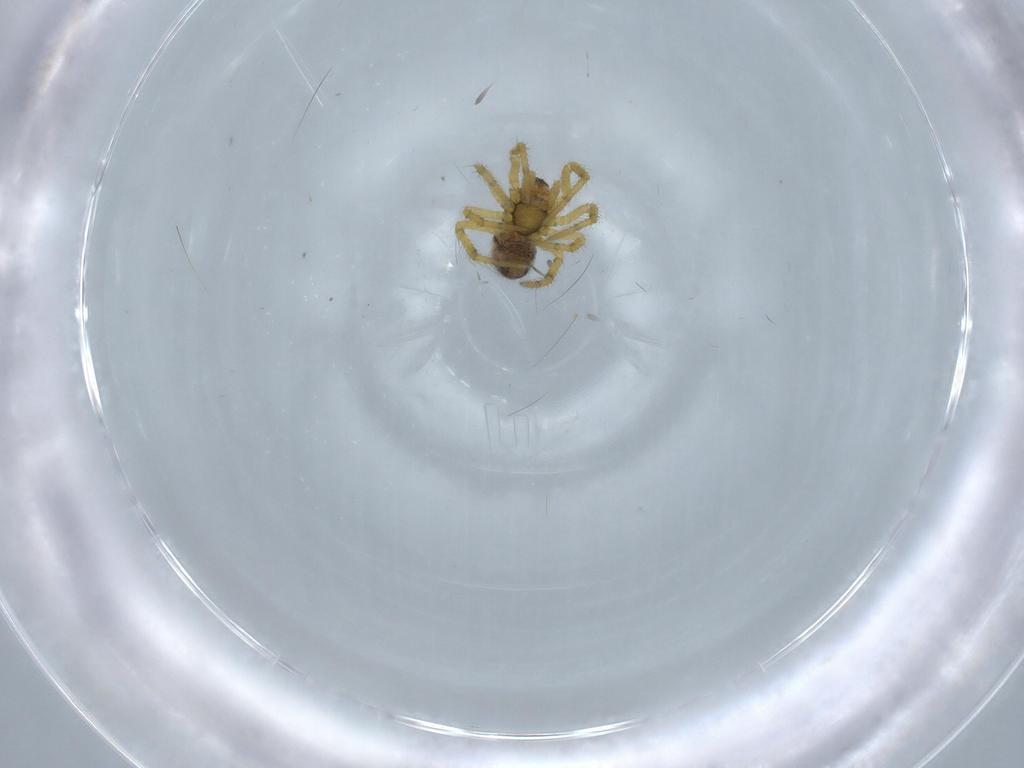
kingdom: Animalia
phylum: Arthropoda
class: Arachnida
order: Araneae
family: Theridiidae
